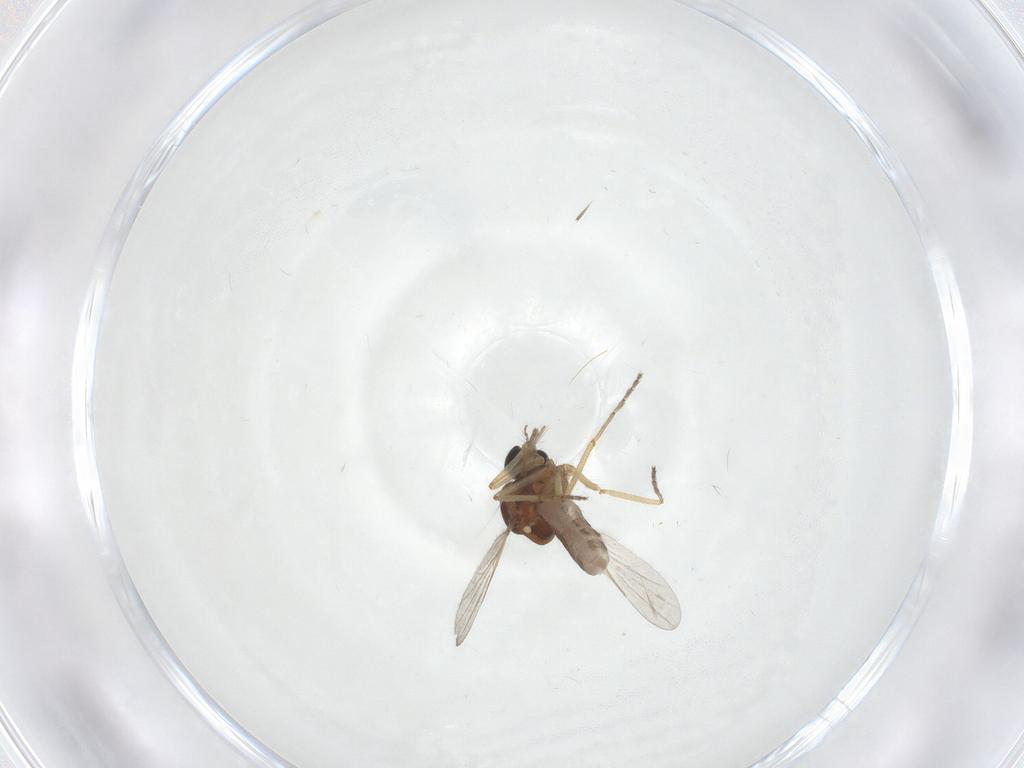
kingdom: Animalia
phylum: Arthropoda
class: Insecta
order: Diptera
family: Ceratopogonidae
